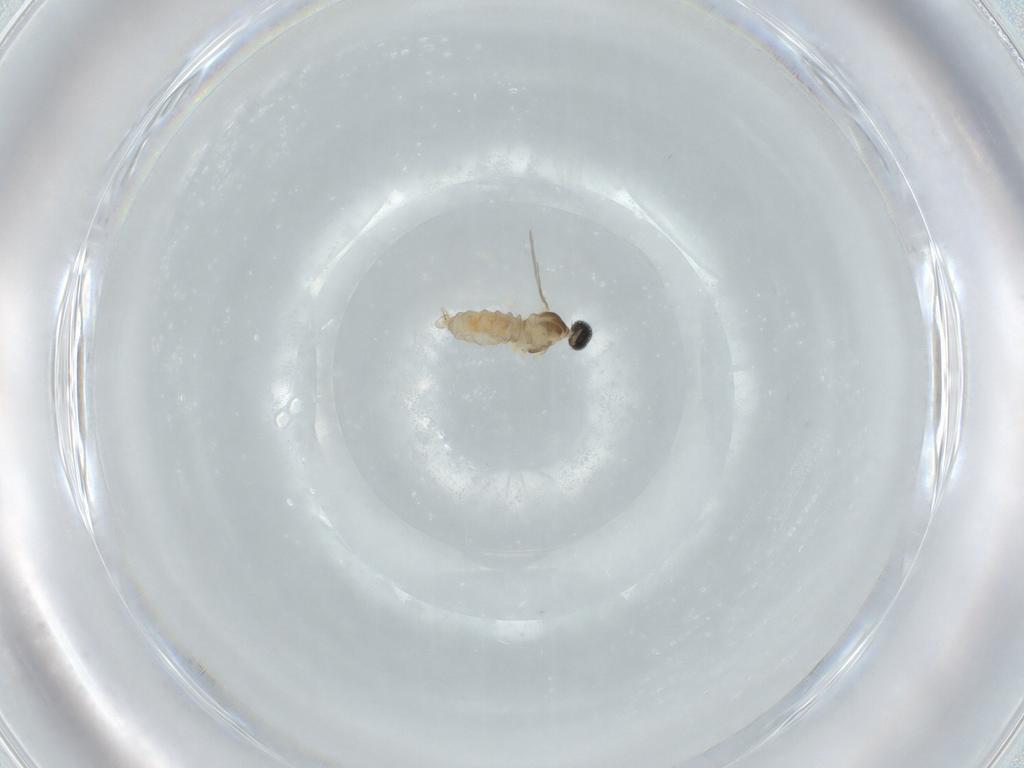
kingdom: Animalia
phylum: Arthropoda
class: Insecta
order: Diptera
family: Cecidomyiidae
